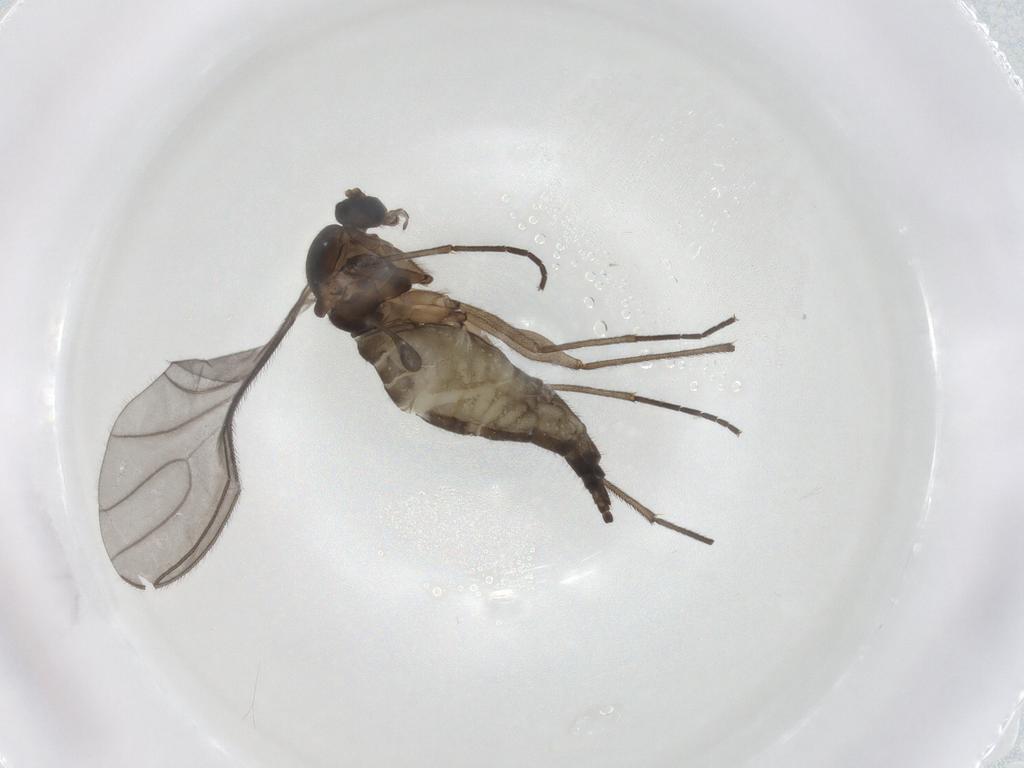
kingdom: Animalia
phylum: Arthropoda
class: Insecta
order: Diptera
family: Sciaridae
